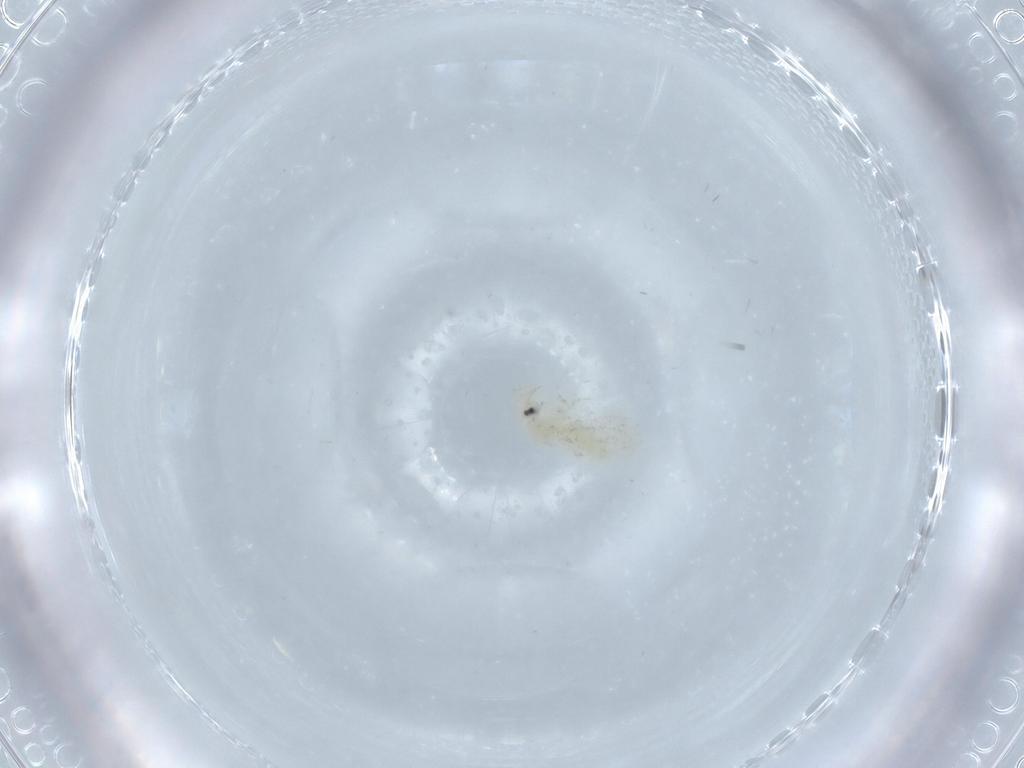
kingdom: Animalia
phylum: Arthropoda
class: Insecta
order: Hemiptera
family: Aleyrodidae
